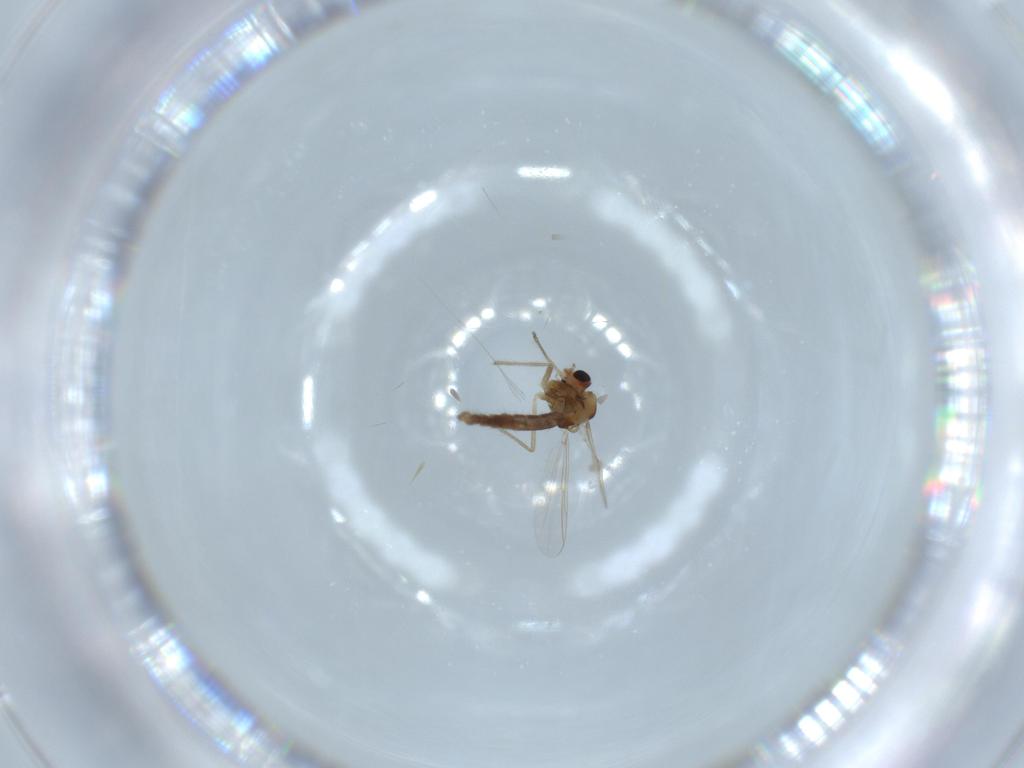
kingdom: Animalia
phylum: Arthropoda
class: Insecta
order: Diptera
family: Chironomidae
